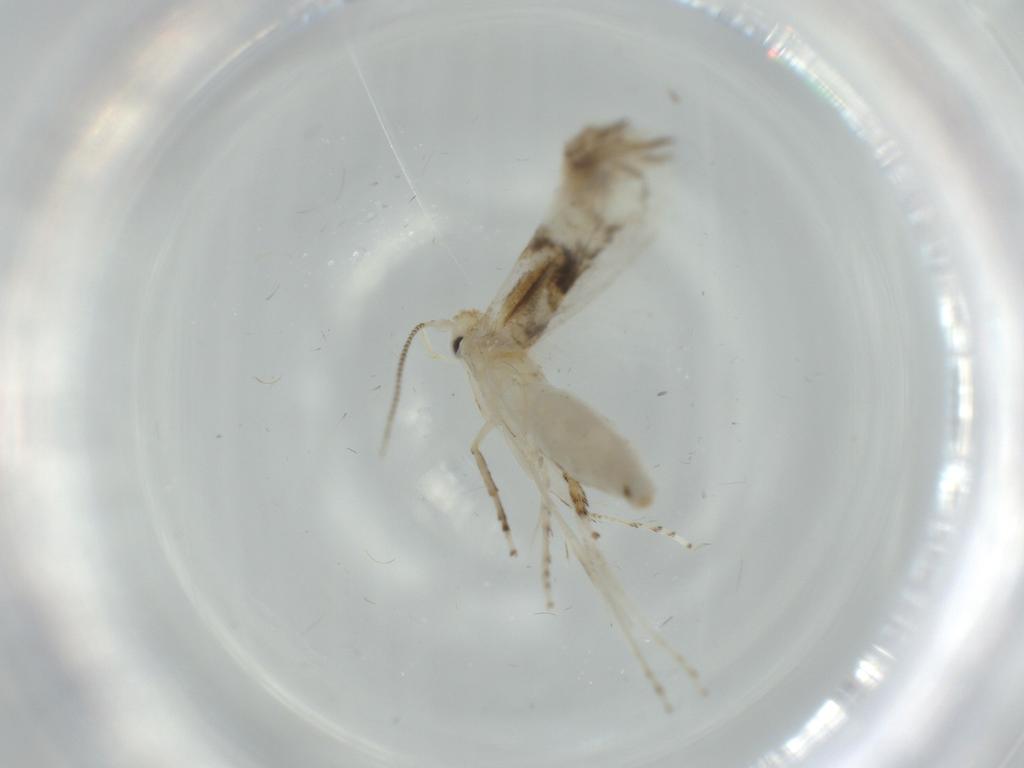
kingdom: Animalia
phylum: Arthropoda
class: Insecta
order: Lepidoptera
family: Gracillariidae
